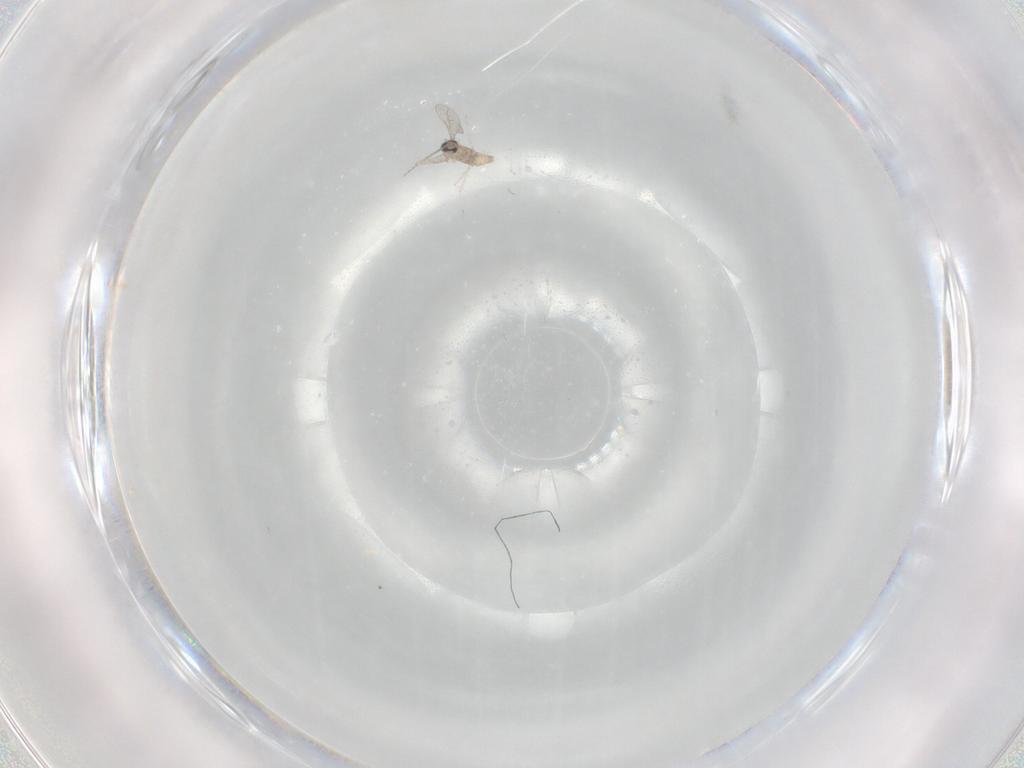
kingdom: Animalia
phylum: Arthropoda
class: Insecta
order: Diptera
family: Cecidomyiidae
